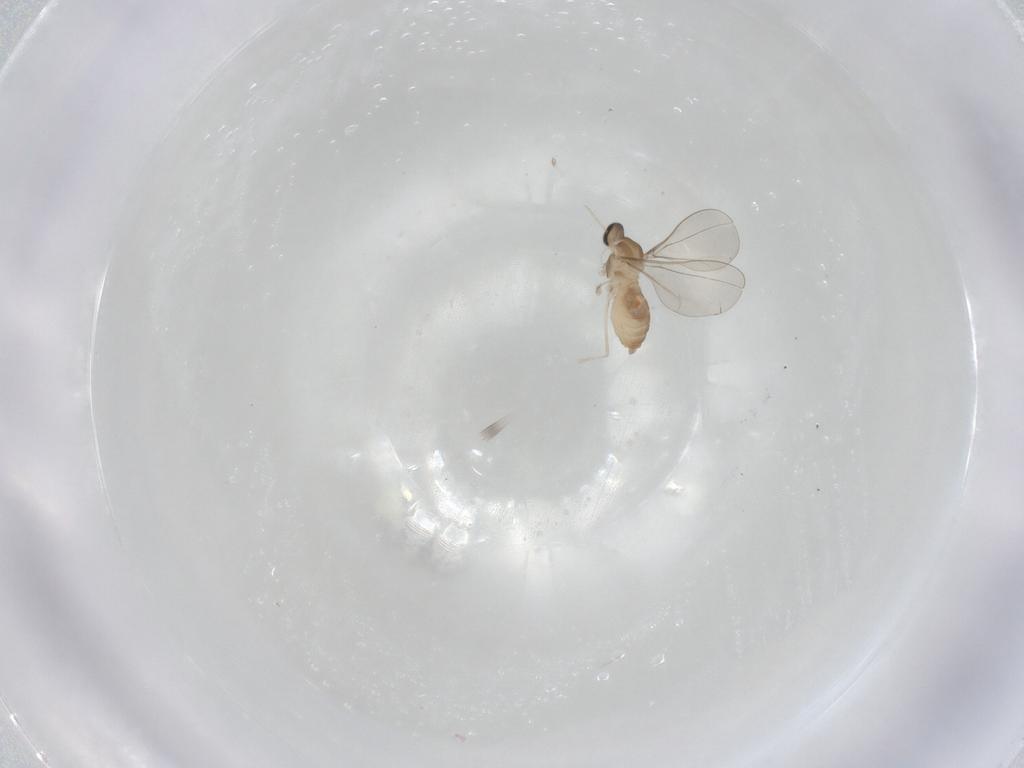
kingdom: Animalia
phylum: Arthropoda
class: Insecta
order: Diptera
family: Cecidomyiidae
